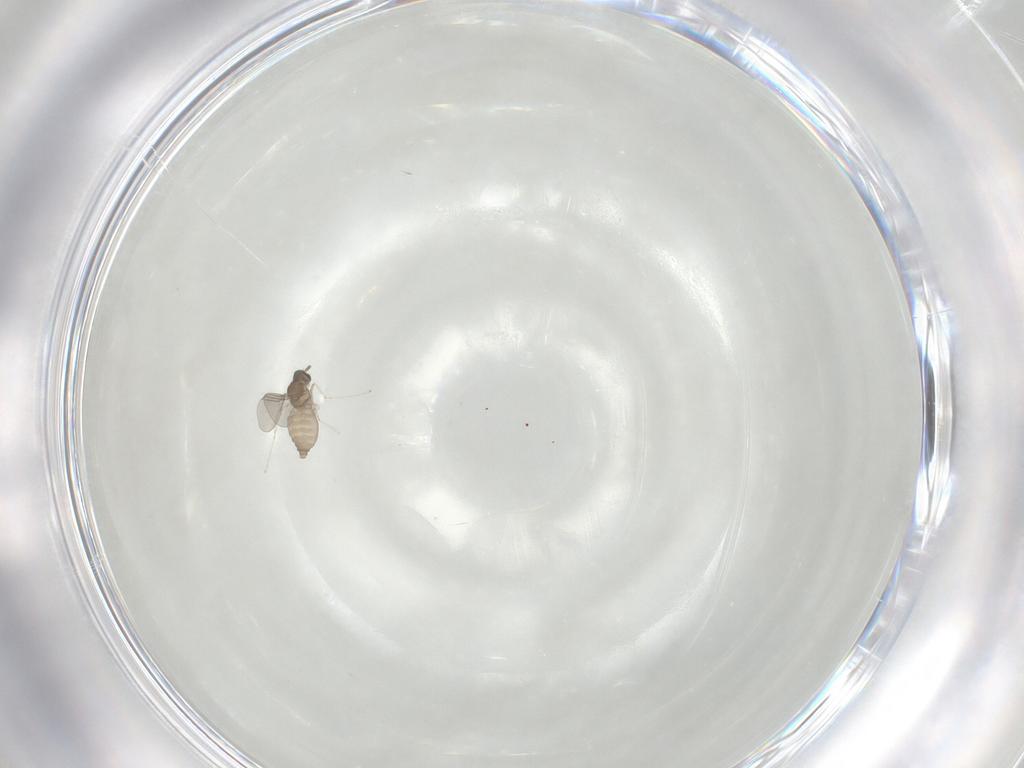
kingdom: Animalia
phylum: Arthropoda
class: Insecta
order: Diptera
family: Cecidomyiidae
